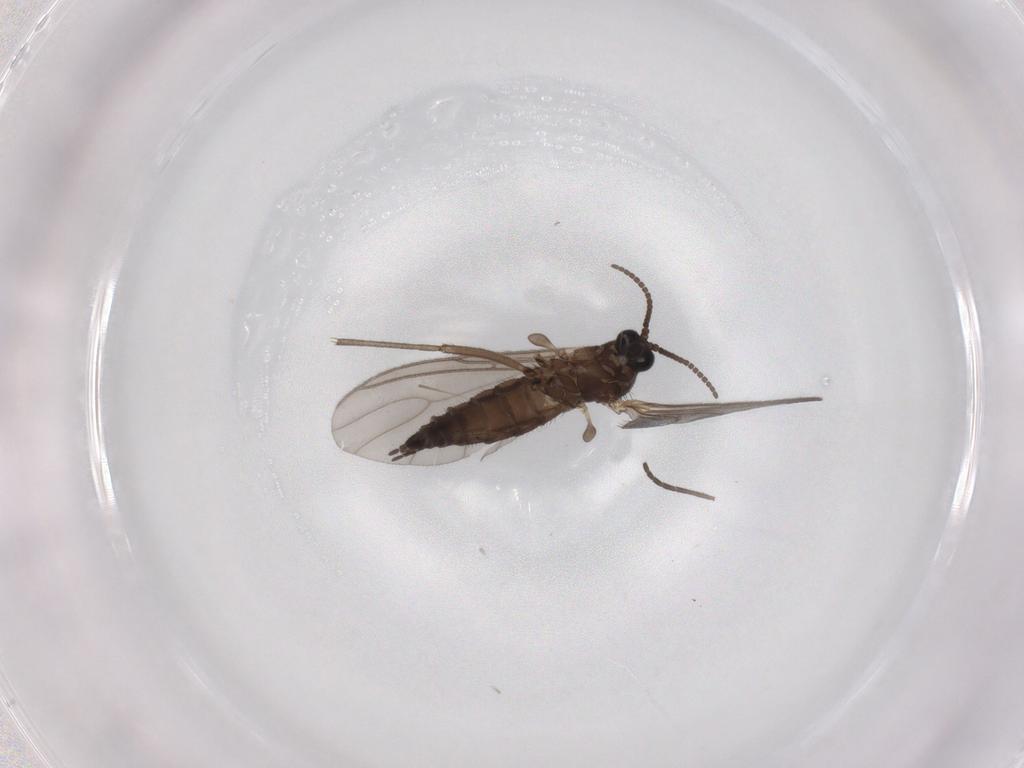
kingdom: Animalia
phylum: Arthropoda
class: Insecta
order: Diptera
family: Sciaridae
